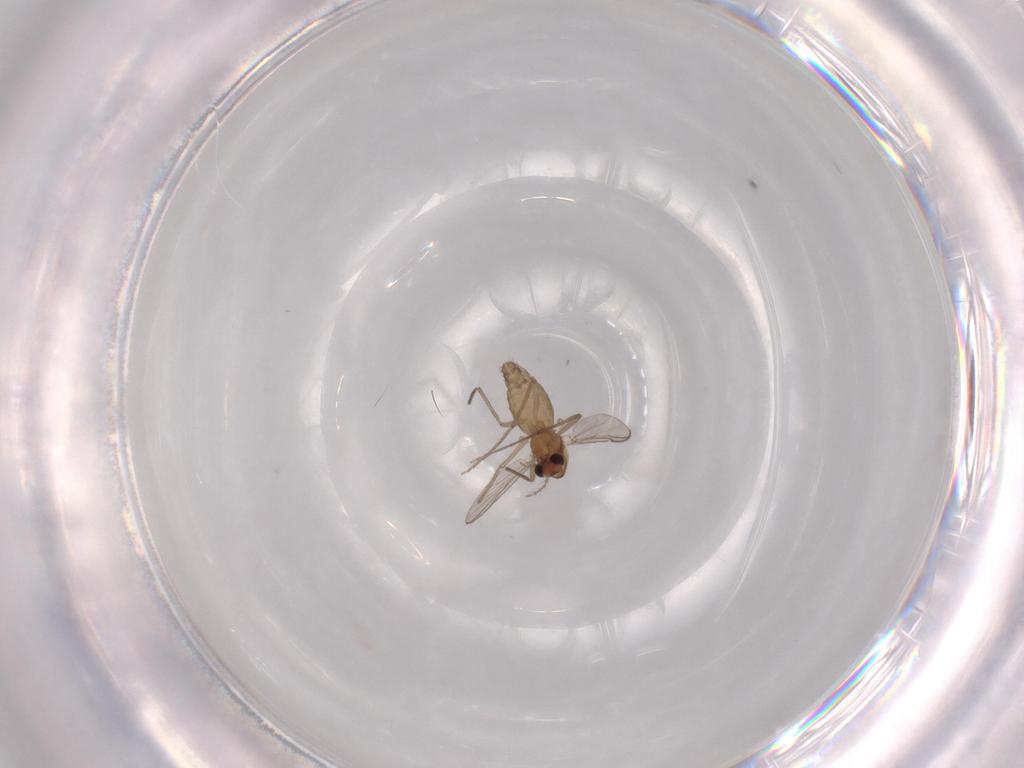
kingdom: Animalia
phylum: Arthropoda
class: Insecta
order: Diptera
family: Chironomidae
